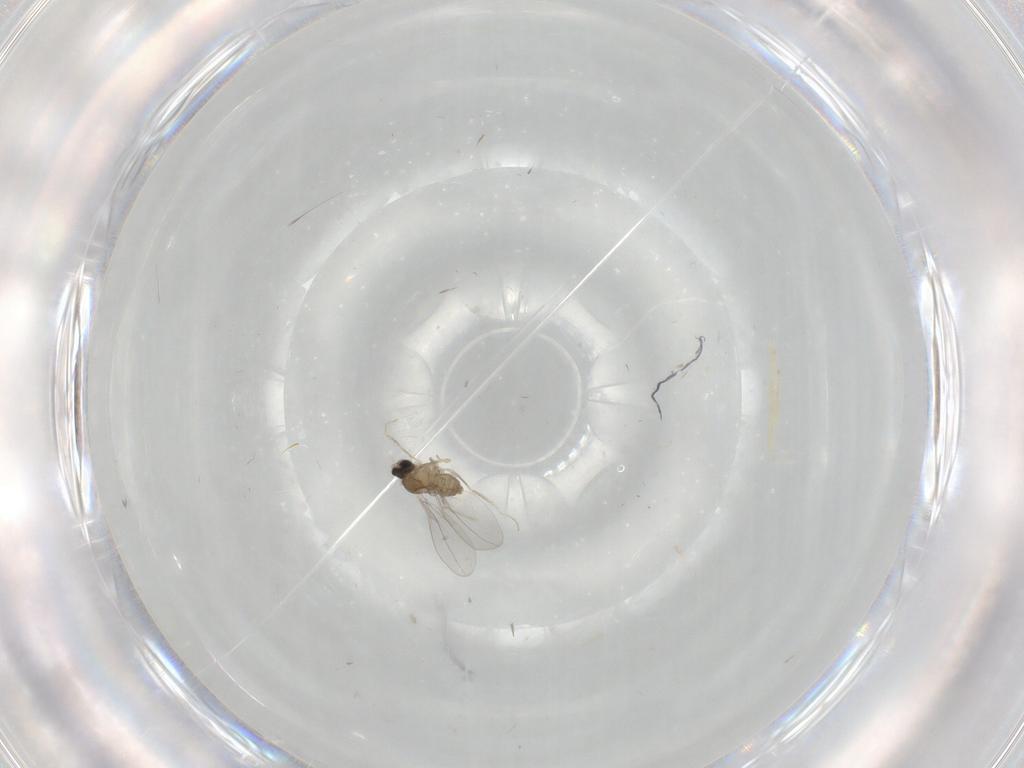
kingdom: Animalia
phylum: Arthropoda
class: Insecta
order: Diptera
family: Cecidomyiidae
